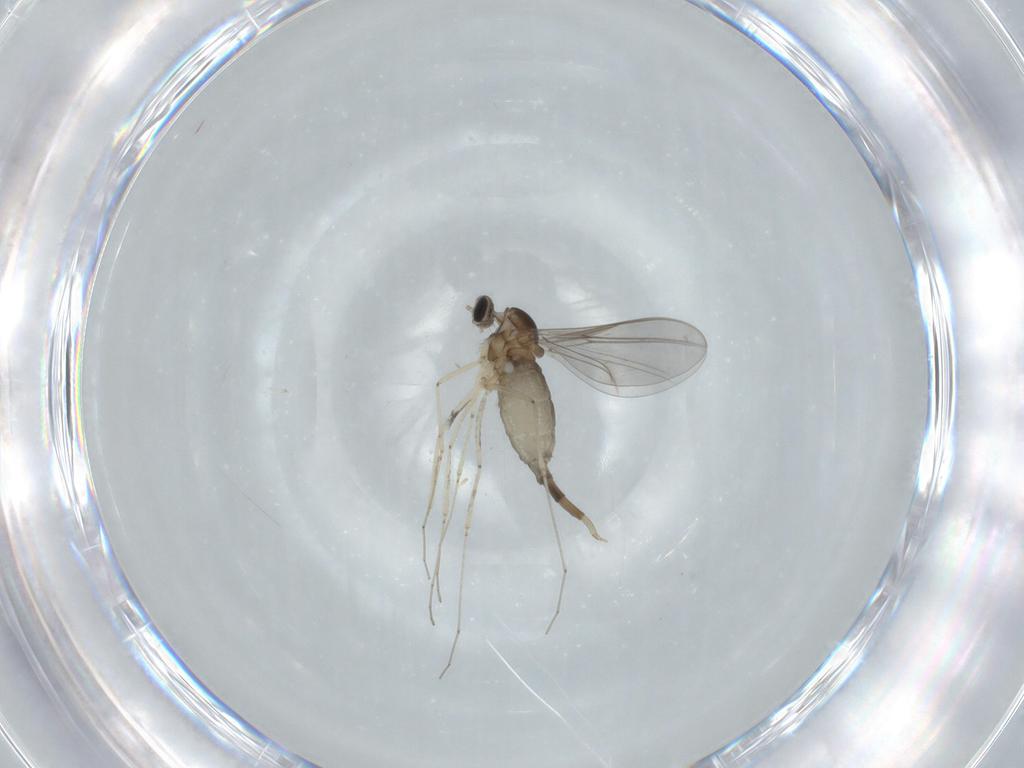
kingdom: Animalia
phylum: Arthropoda
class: Insecta
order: Diptera
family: Cecidomyiidae
